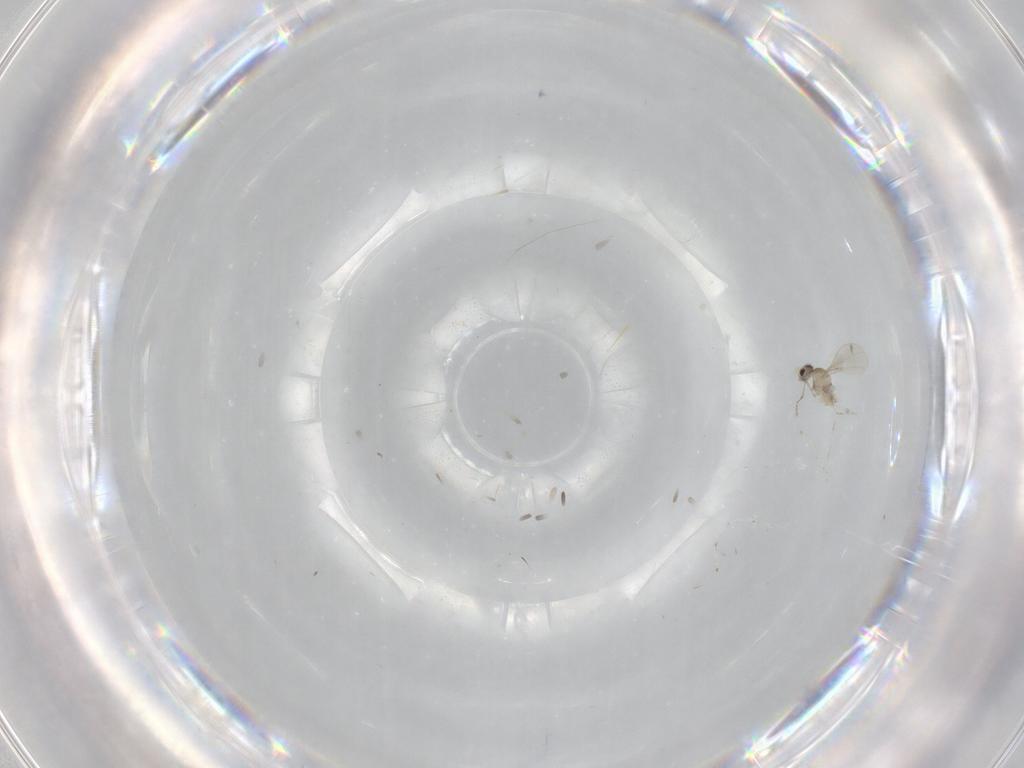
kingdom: Animalia
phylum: Arthropoda
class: Insecta
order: Diptera
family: Cecidomyiidae
